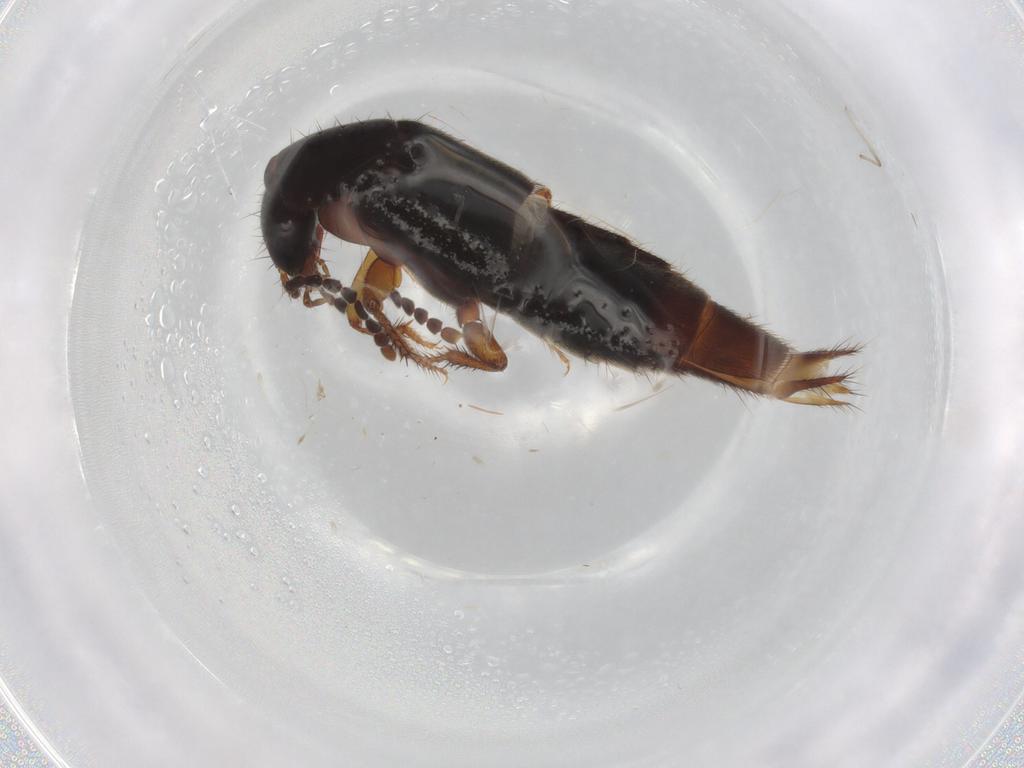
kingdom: Animalia
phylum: Arthropoda
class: Insecta
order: Coleoptera
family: Staphylinidae
